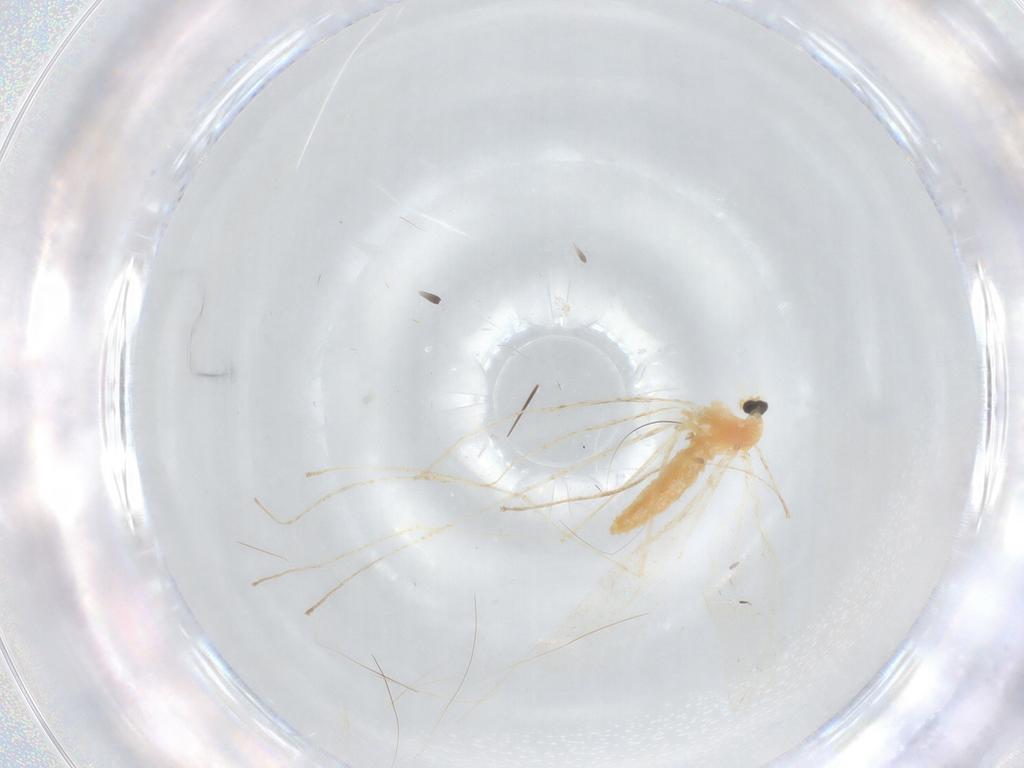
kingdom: Animalia
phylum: Arthropoda
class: Insecta
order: Diptera
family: Cecidomyiidae
